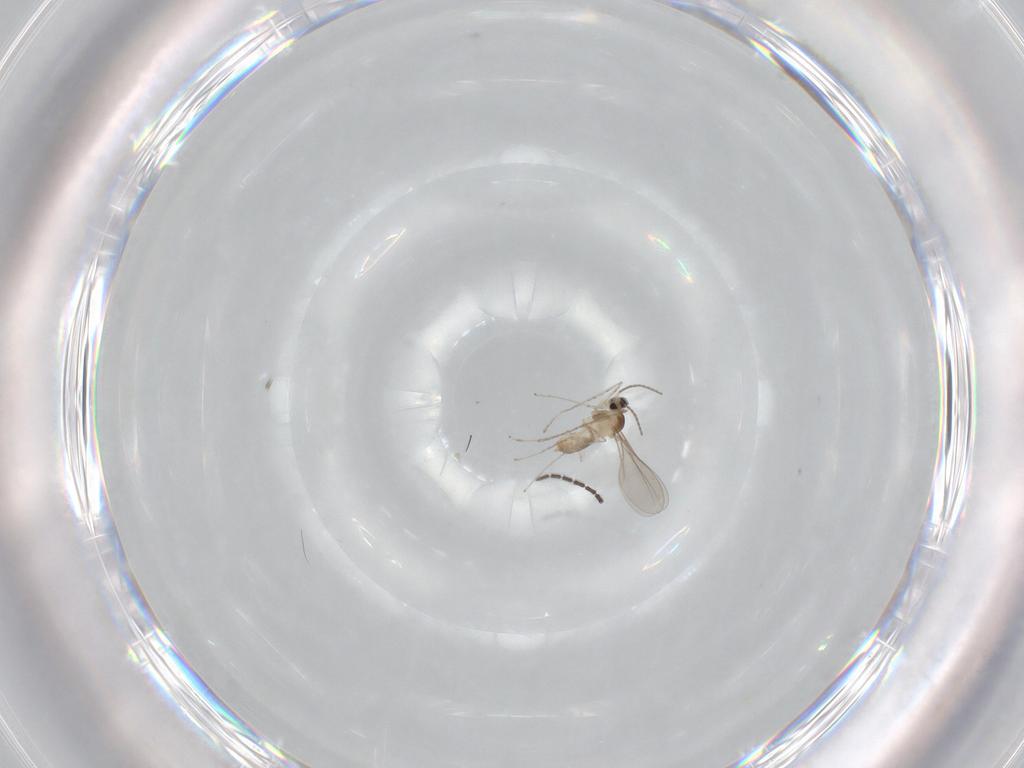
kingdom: Animalia
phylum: Arthropoda
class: Insecta
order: Diptera
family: Cecidomyiidae
